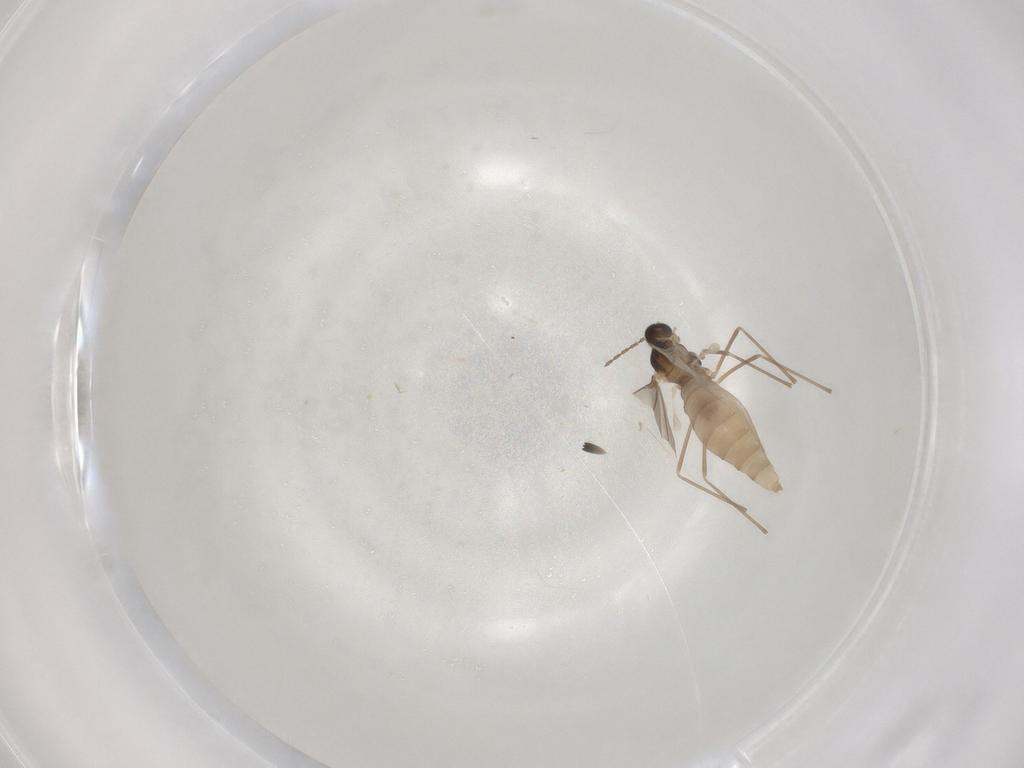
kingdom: Animalia
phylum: Arthropoda
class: Insecta
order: Diptera
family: Cecidomyiidae
